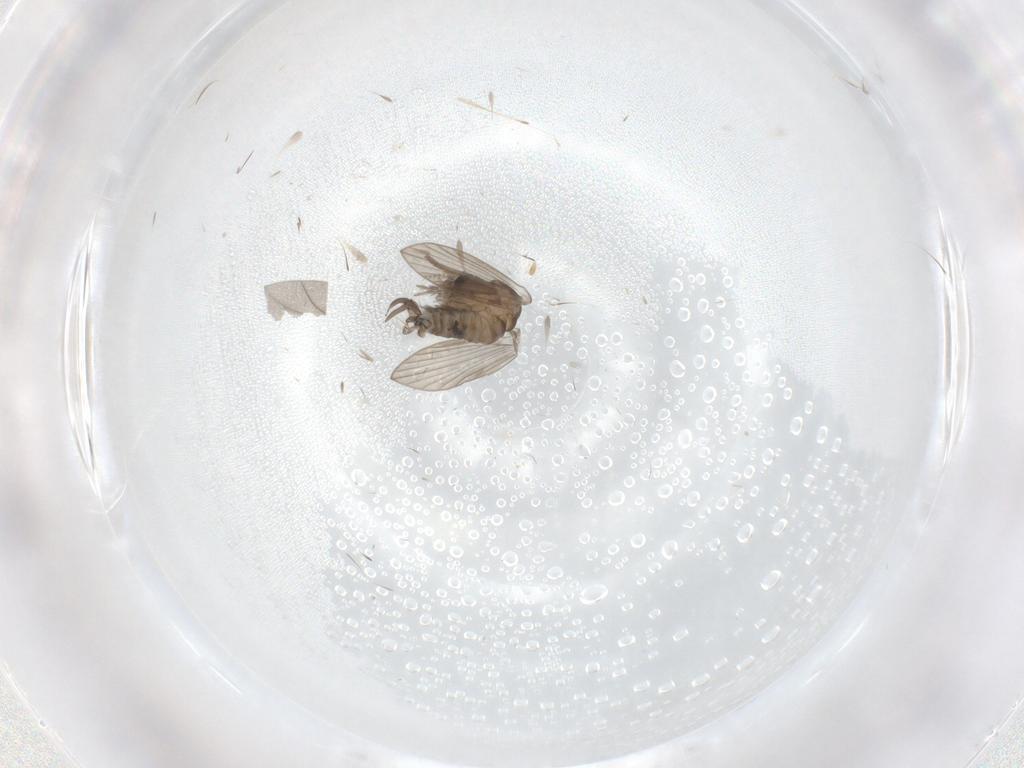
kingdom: Animalia
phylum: Arthropoda
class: Insecta
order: Diptera
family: Psychodidae
